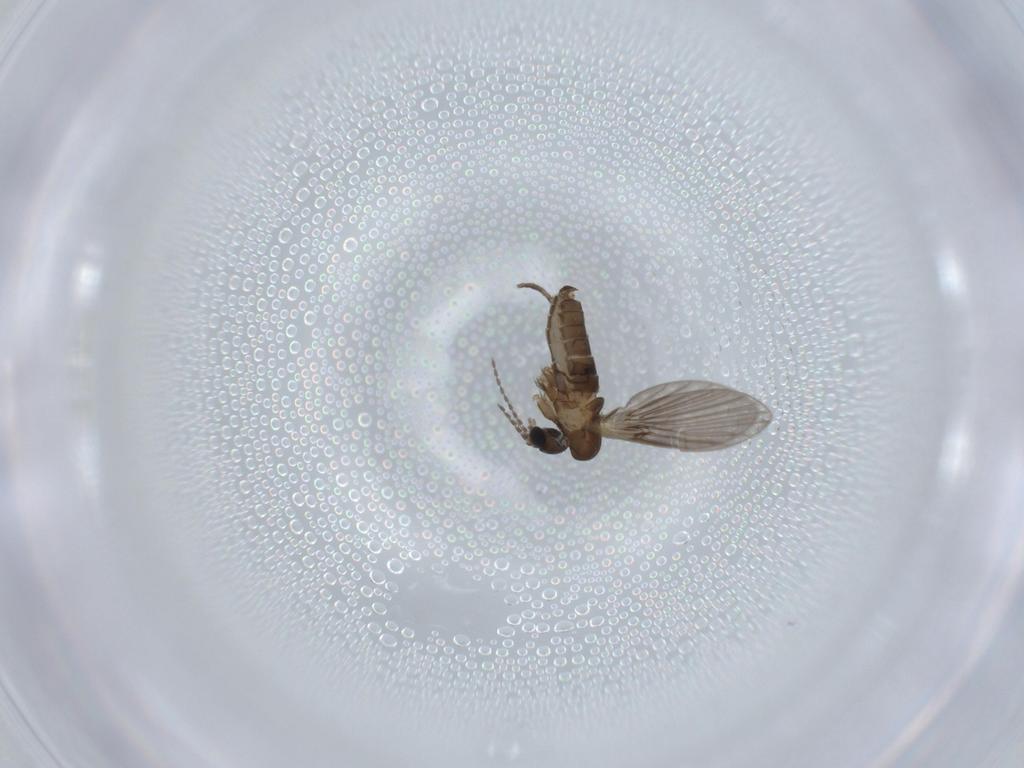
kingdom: Animalia
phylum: Arthropoda
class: Insecta
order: Diptera
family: Psychodidae
